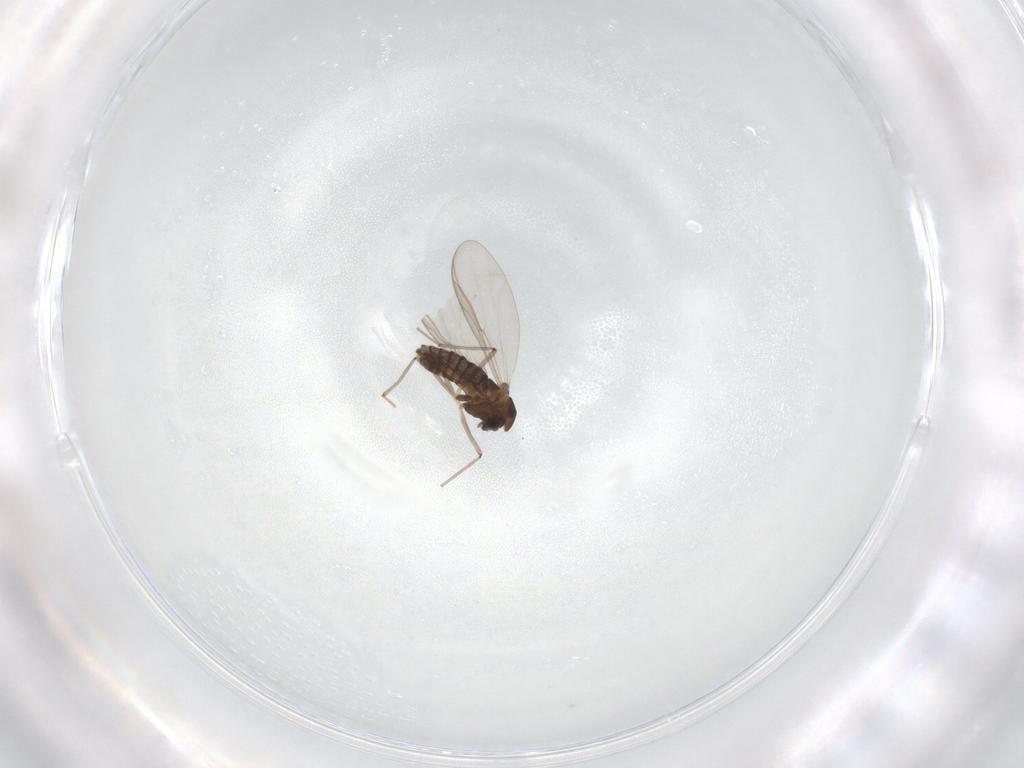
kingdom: Animalia
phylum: Arthropoda
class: Insecta
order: Diptera
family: Chironomidae
